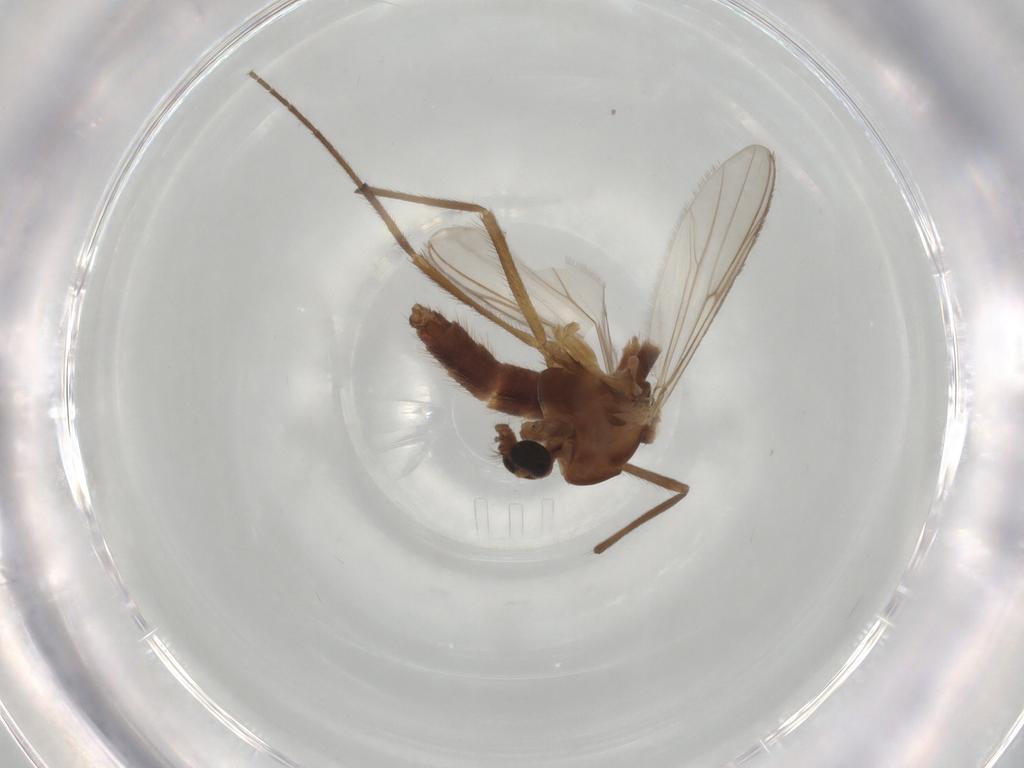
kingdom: Animalia
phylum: Arthropoda
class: Insecta
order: Diptera
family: Chironomidae
